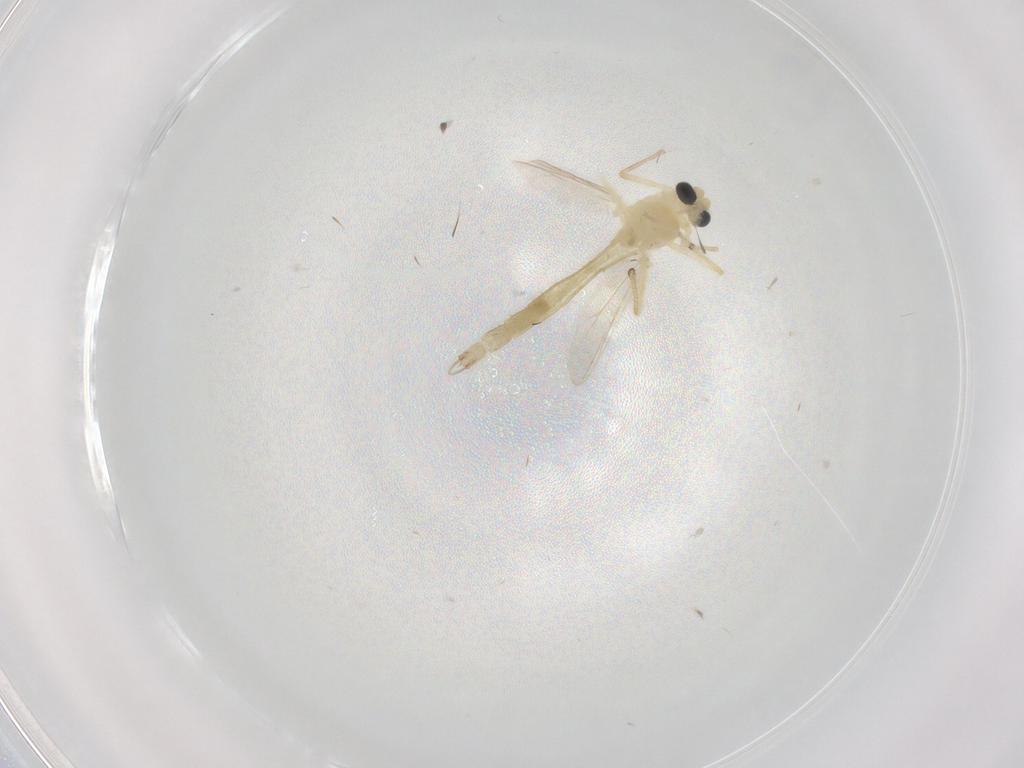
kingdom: Animalia
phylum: Arthropoda
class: Insecta
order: Diptera
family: Chironomidae
